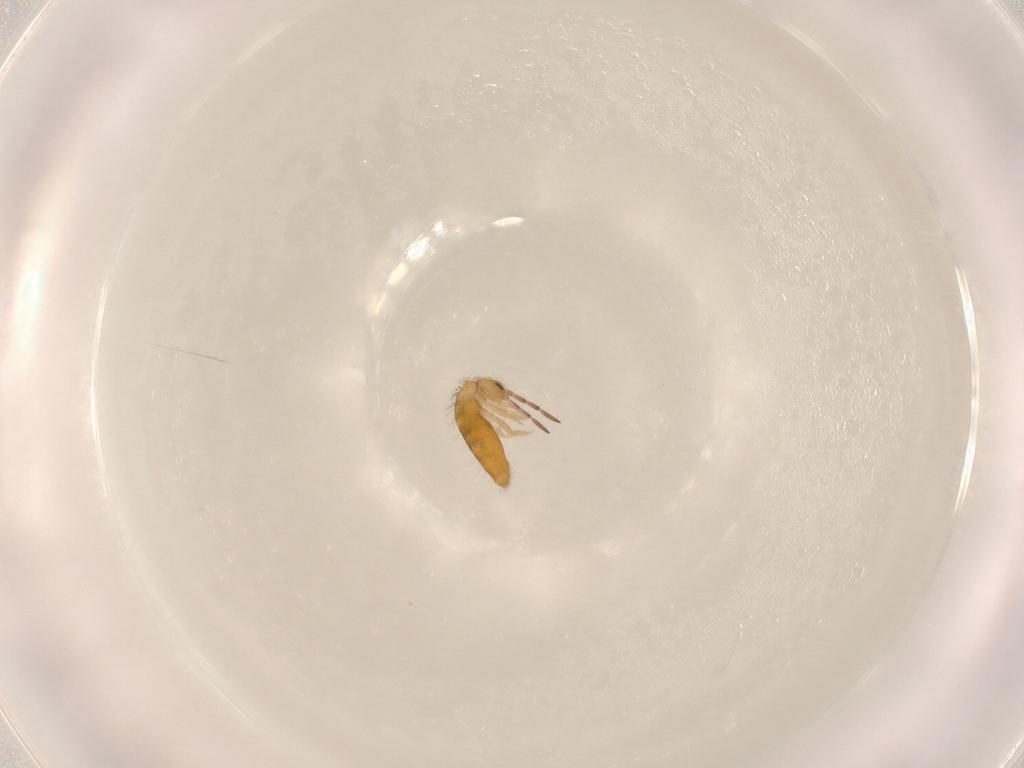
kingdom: Animalia
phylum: Arthropoda
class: Collembola
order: Entomobryomorpha
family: Entomobryidae
